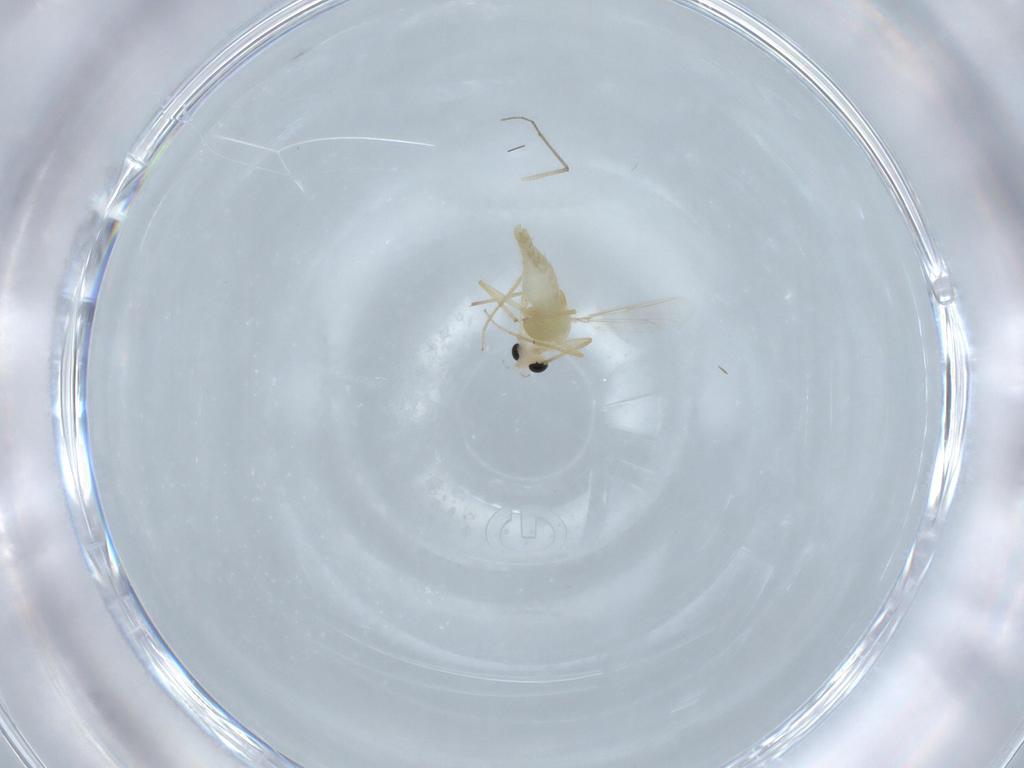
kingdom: Animalia
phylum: Arthropoda
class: Insecta
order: Diptera
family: Chironomidae
